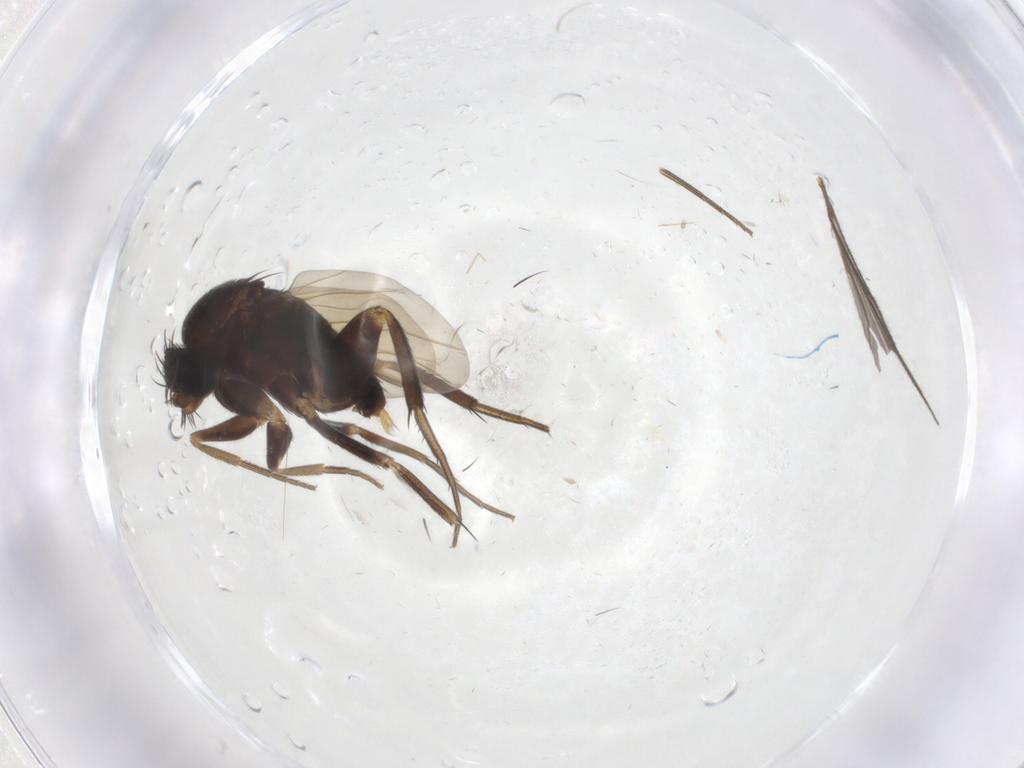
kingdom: Animalia
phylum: Arthropoda
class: Insecta
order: Diptera
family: Phoridae
